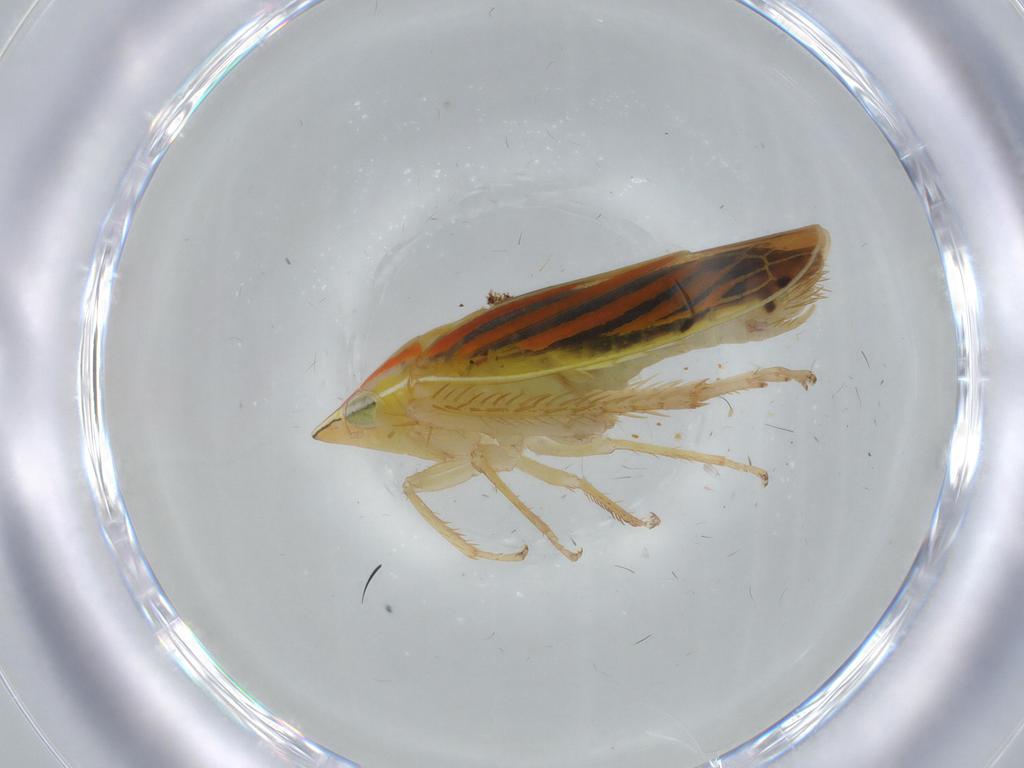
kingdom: Animalia
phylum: Arthropoda
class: Insecta
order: Hemiptera
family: Cicadellidae
